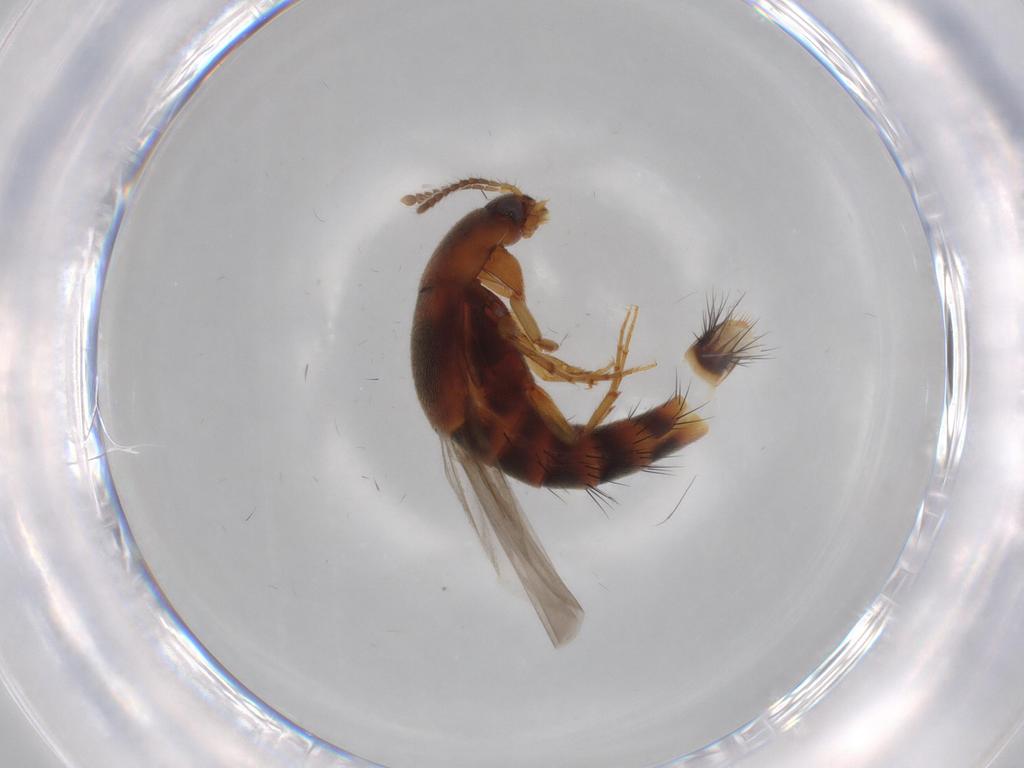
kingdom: Animalia
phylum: Arthropoda
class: Insecta
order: Coleoptera
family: Staphylinidae
